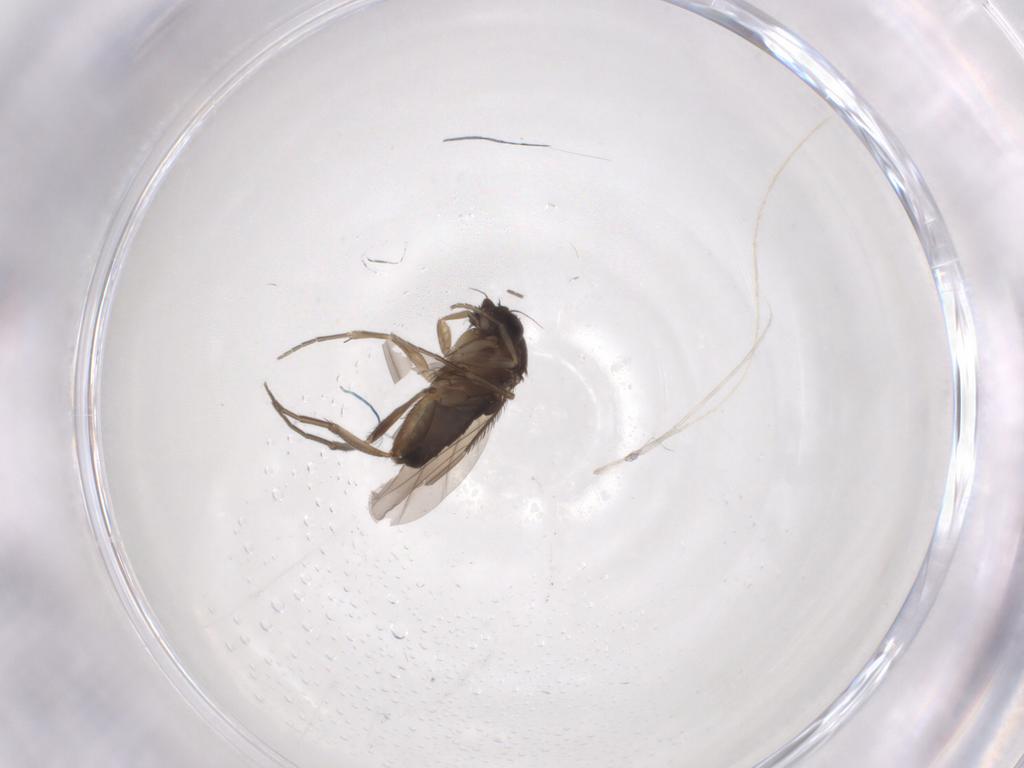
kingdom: Animalia
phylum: Arthropoda
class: Insecta
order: Diptera
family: Phoridae
